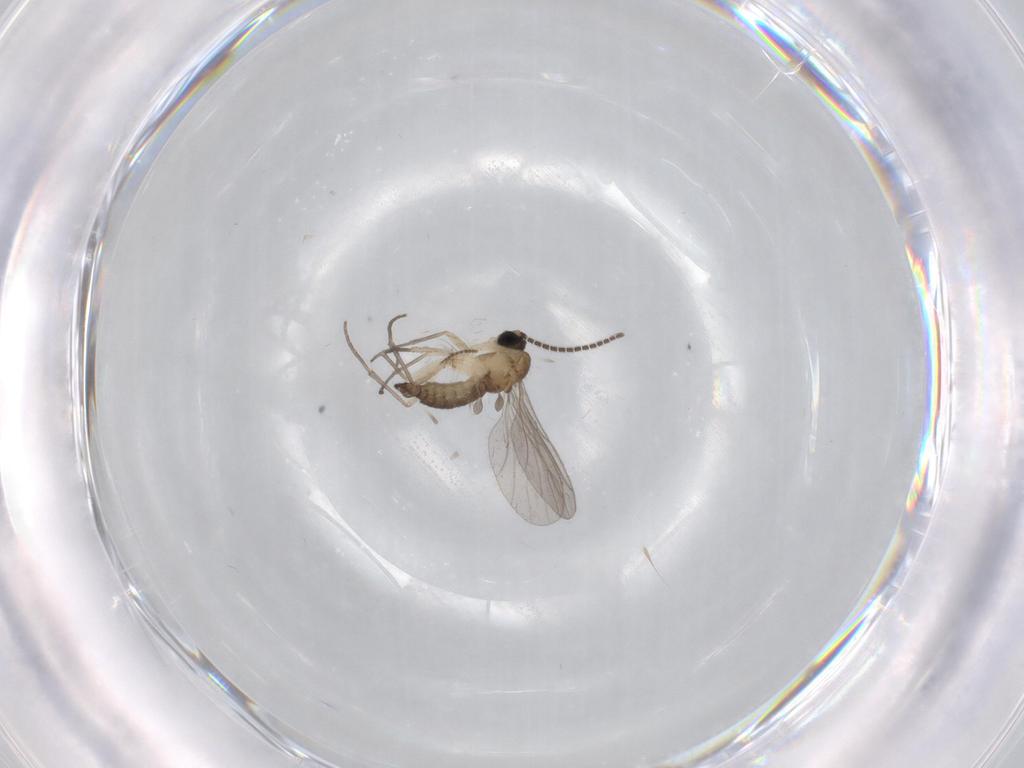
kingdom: Animalia
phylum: Arthropoda
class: Insecta
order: Diptera
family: Sciaridae
